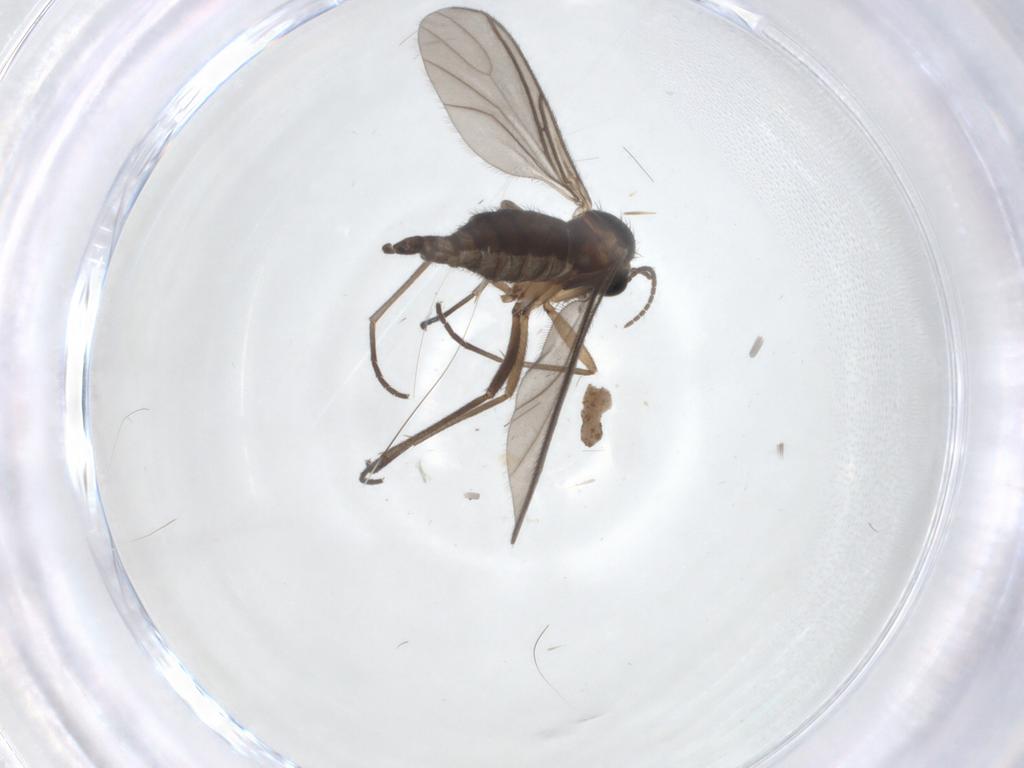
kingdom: Animalia
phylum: Arthropoda
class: Insecta
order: Diptera
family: Sciaridae
